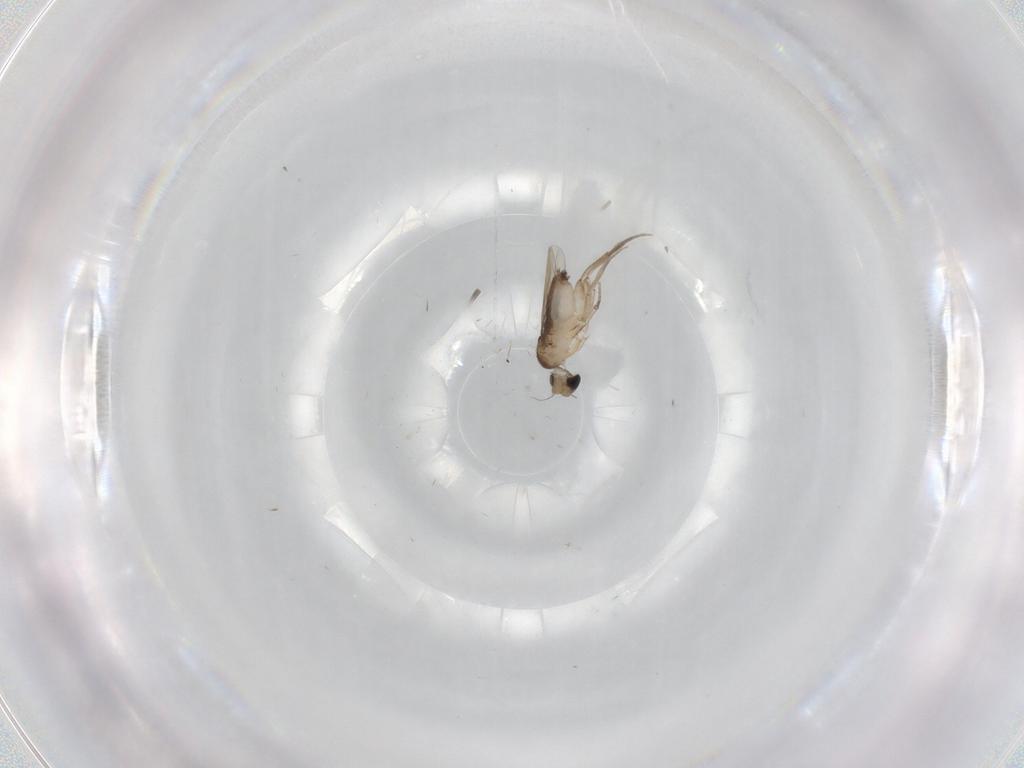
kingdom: Animalia
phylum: Arthropoda
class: Insecta
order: Diptera
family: Phoridae
